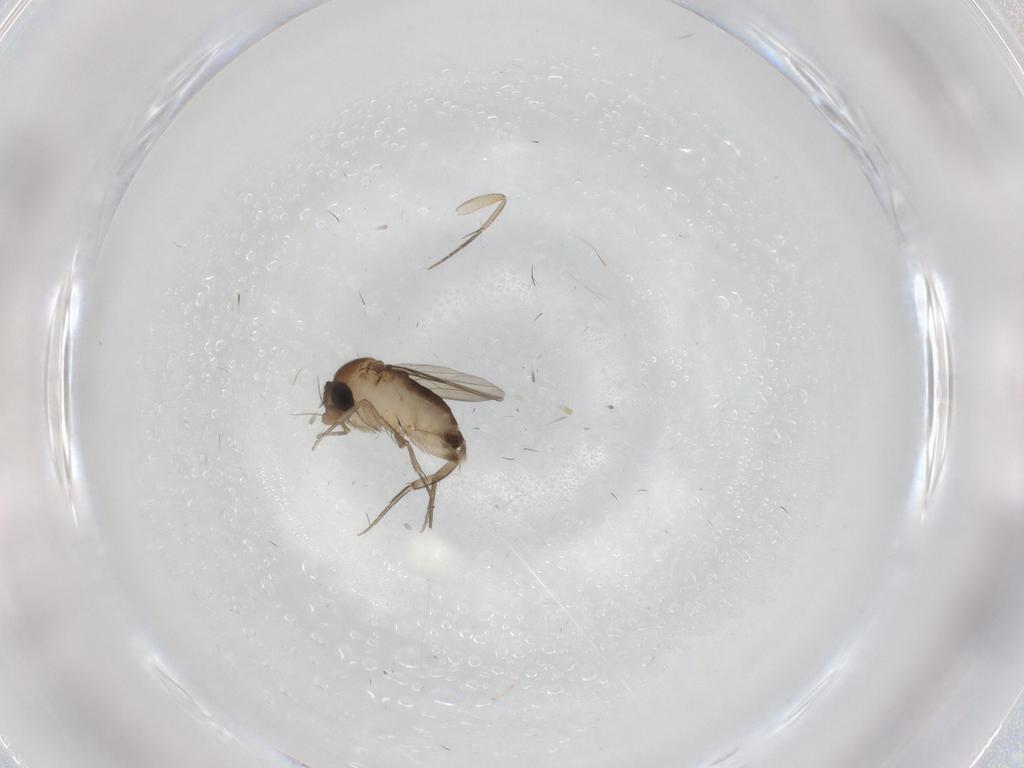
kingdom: Animalia
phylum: Arthropoda
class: Insecta
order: Diptera
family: Phoridae
